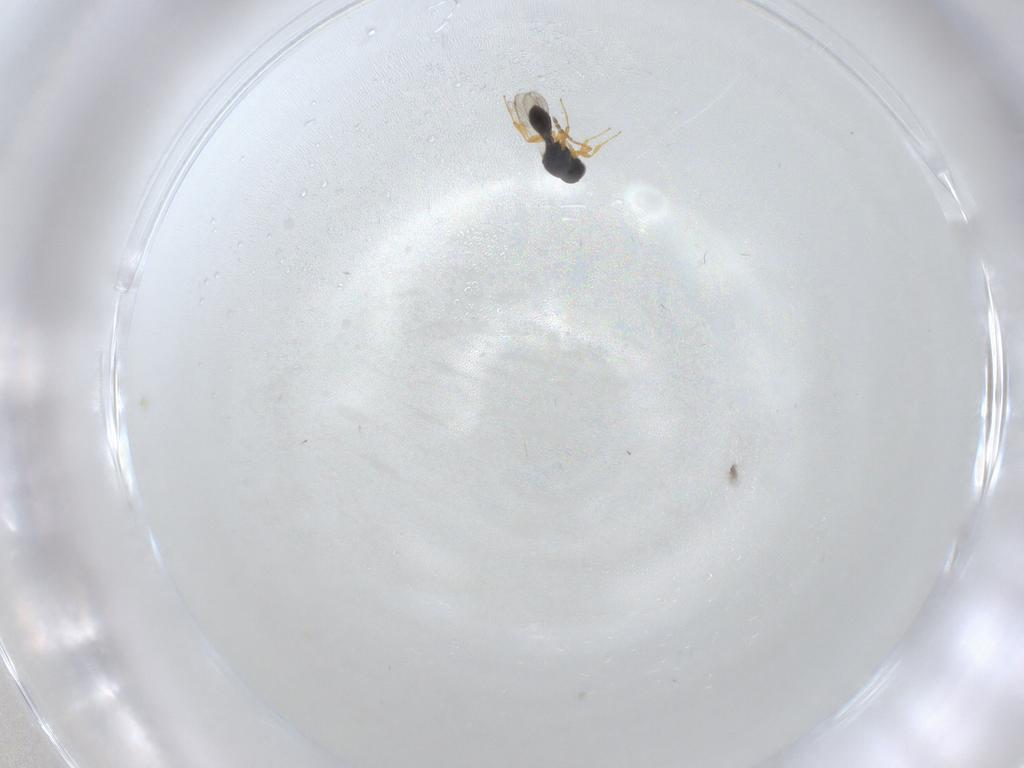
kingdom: Animalia
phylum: Arthropoda
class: Insecta
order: Hymenoptera
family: Platygastridae
